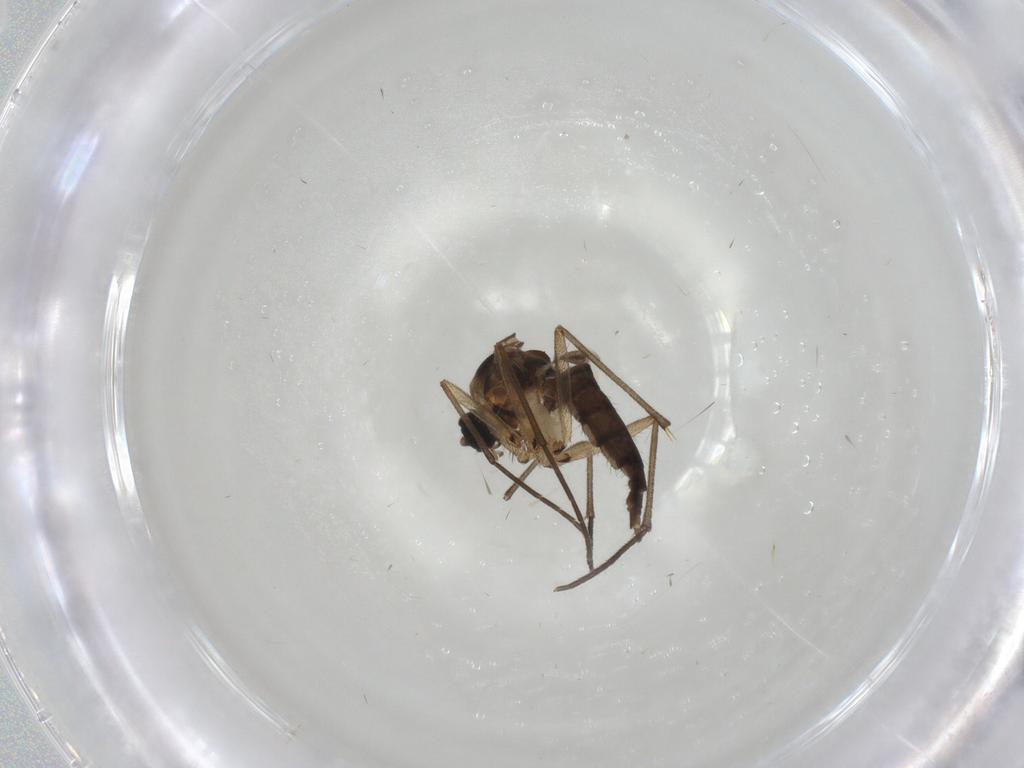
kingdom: Animalia
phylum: Arthropoda
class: Insecta
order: Diptera
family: Sciaridae
